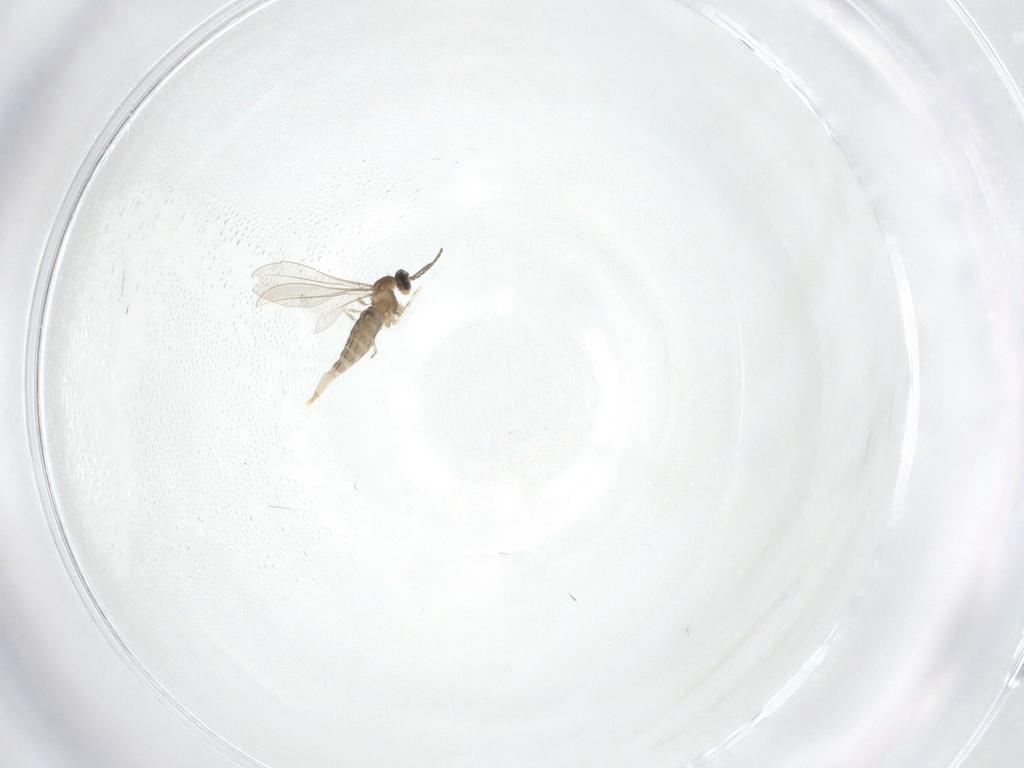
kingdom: Animalia
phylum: Arthropoda
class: Insecta
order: Diptera
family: Cecidomyiidae
